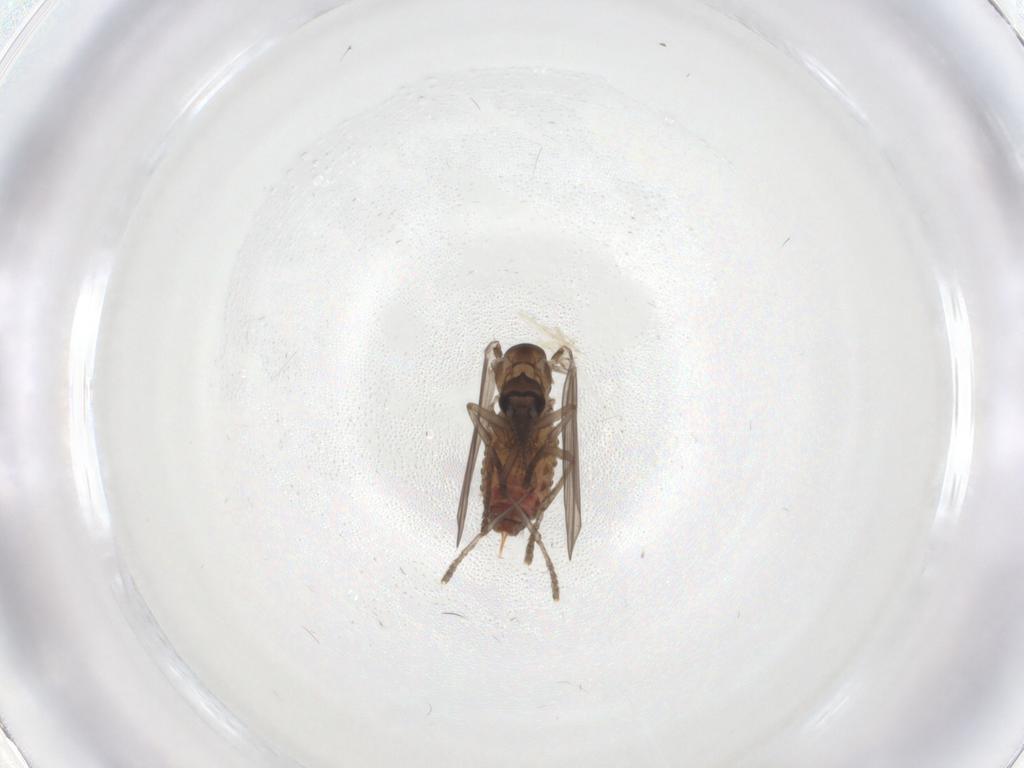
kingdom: Animalia
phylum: Arthropoda
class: Insecta
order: Diptera
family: Psychodidae
